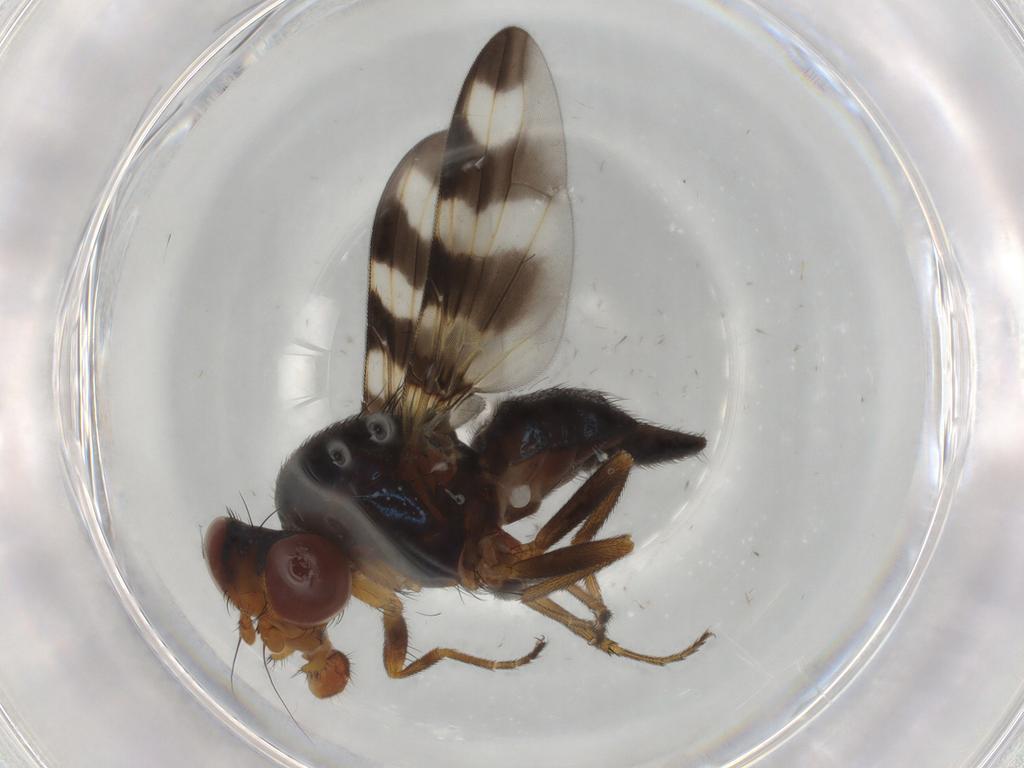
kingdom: Animalia
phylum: Arthropoda
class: Insecta
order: Diptera
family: Ulidiidae
